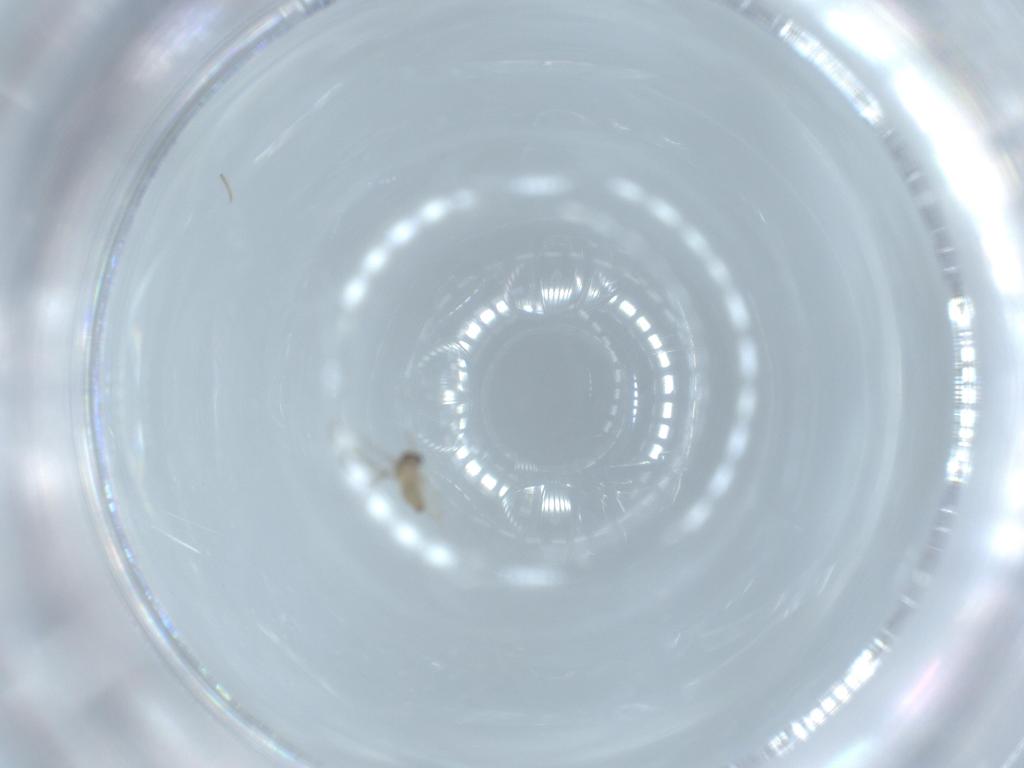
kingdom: Animalia
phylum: Arthropoda
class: Insecta
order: Diptera
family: Cecidomyiidae
